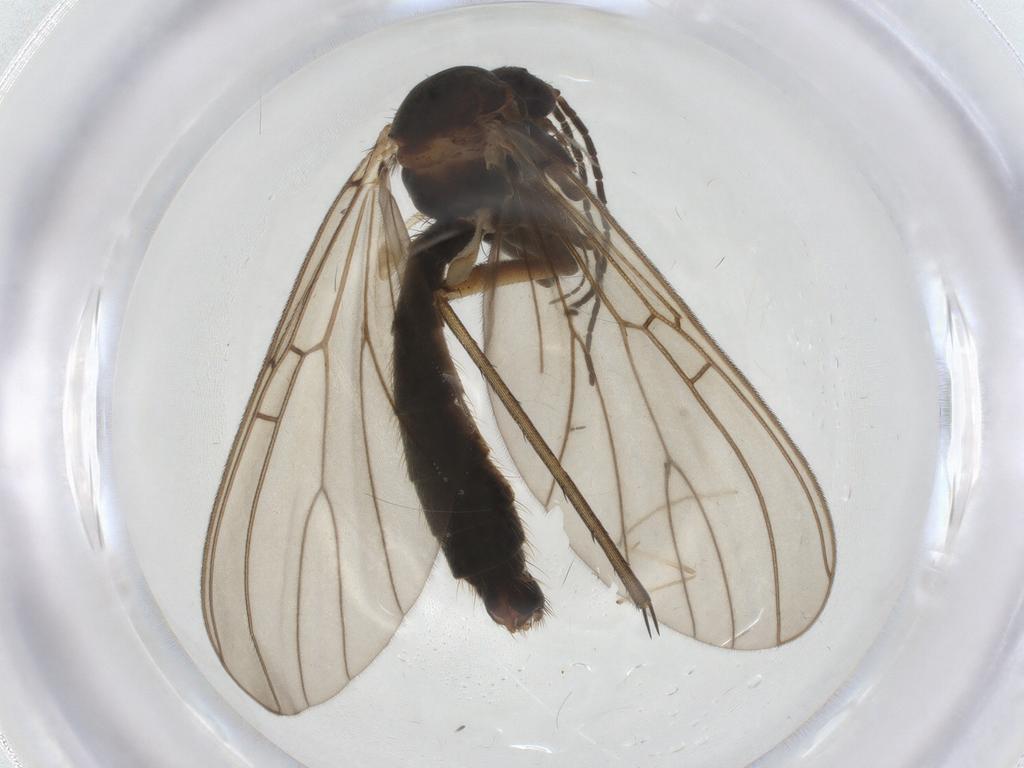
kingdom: Animalia
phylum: Arthropoda
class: Insecta
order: Diptera
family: Mycetophilidae
